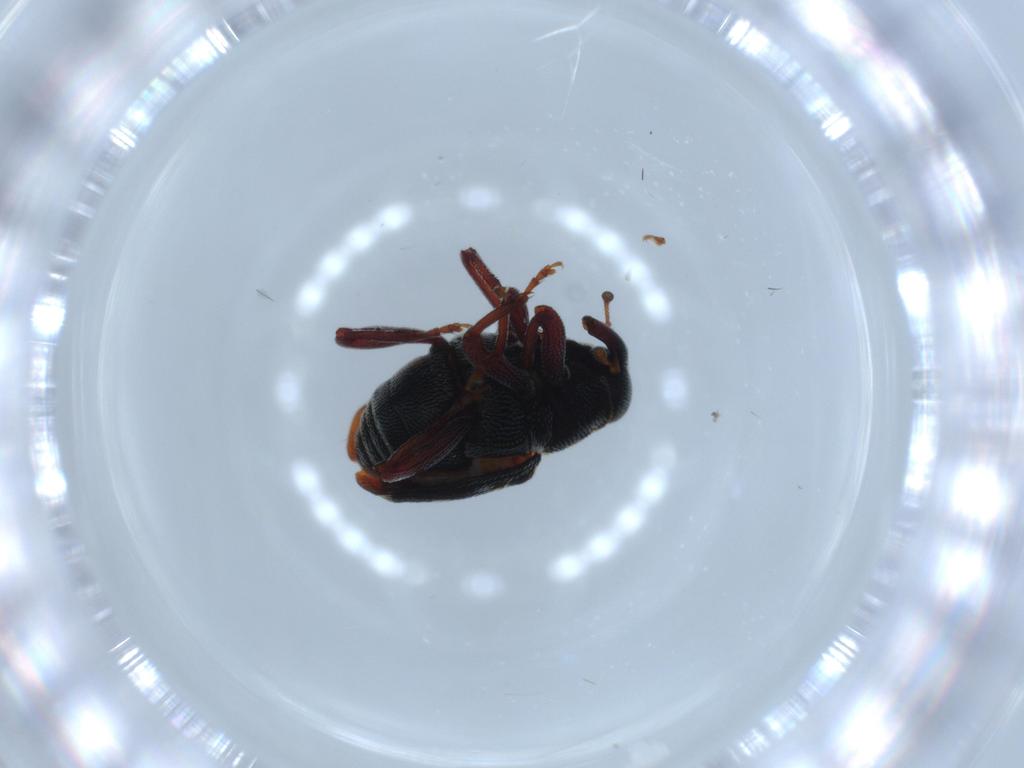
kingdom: Animalia
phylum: Arthropoda
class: Insecta
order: Coleoptera
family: Curculionidae
